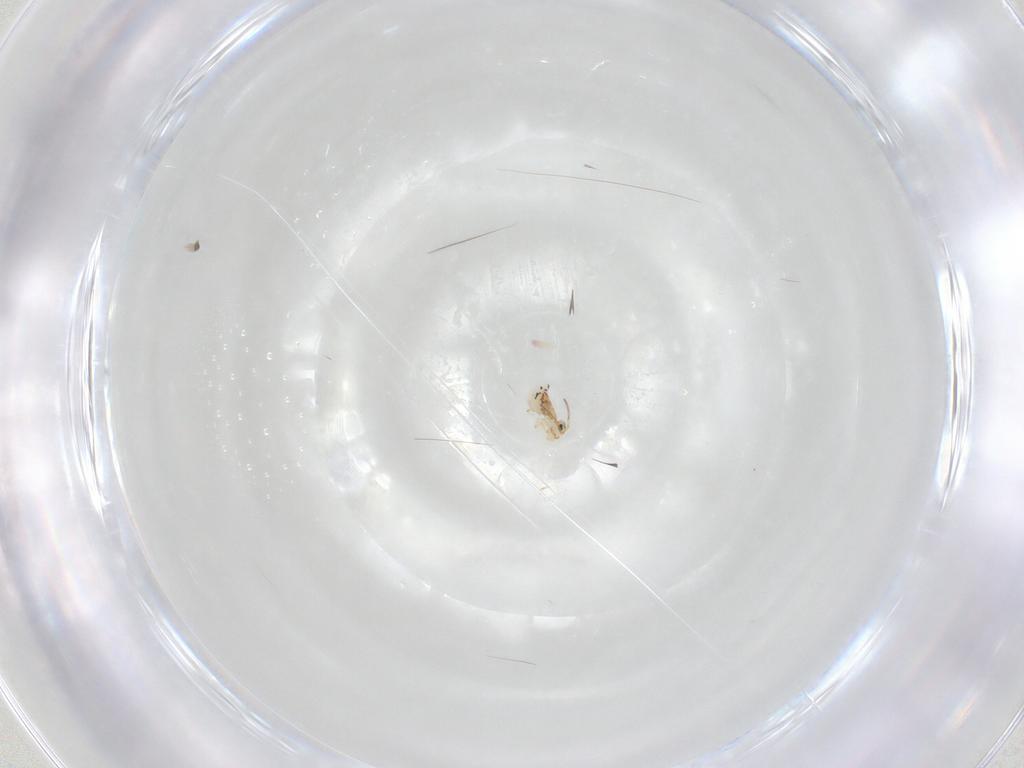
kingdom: Animalia
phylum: Arthropoda
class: Collembola
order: Symphypleona
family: Bourletiellidae
